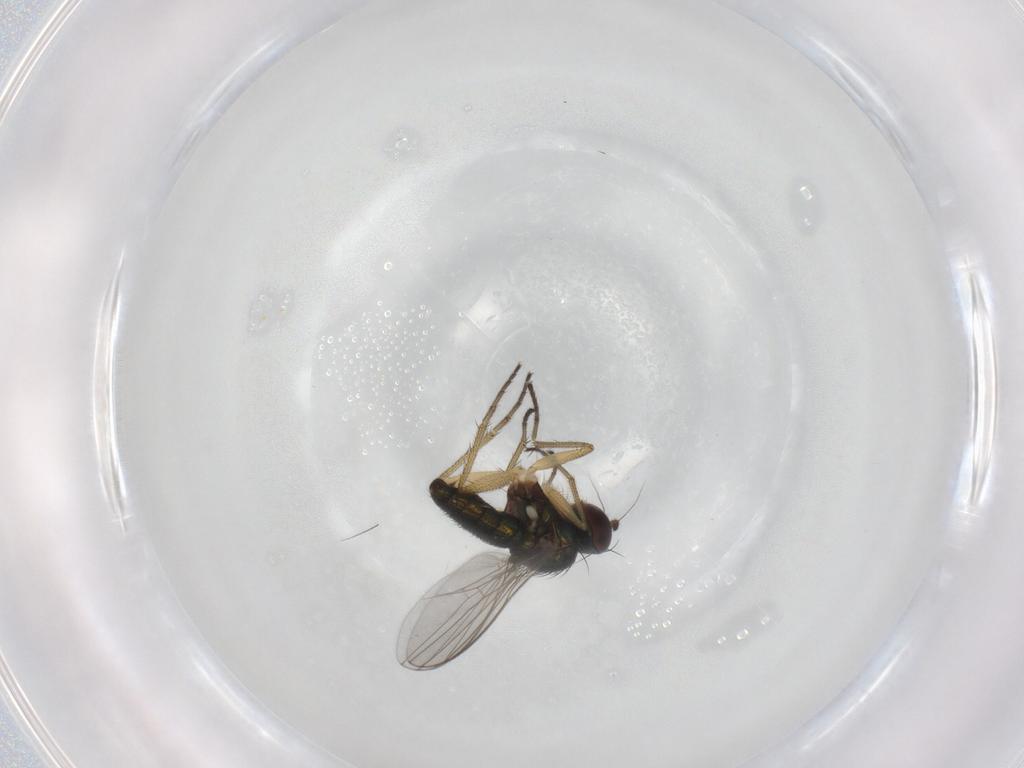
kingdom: Animalia
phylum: Arthropoda
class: Insecta
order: Diptera
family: Dolichopodidae
